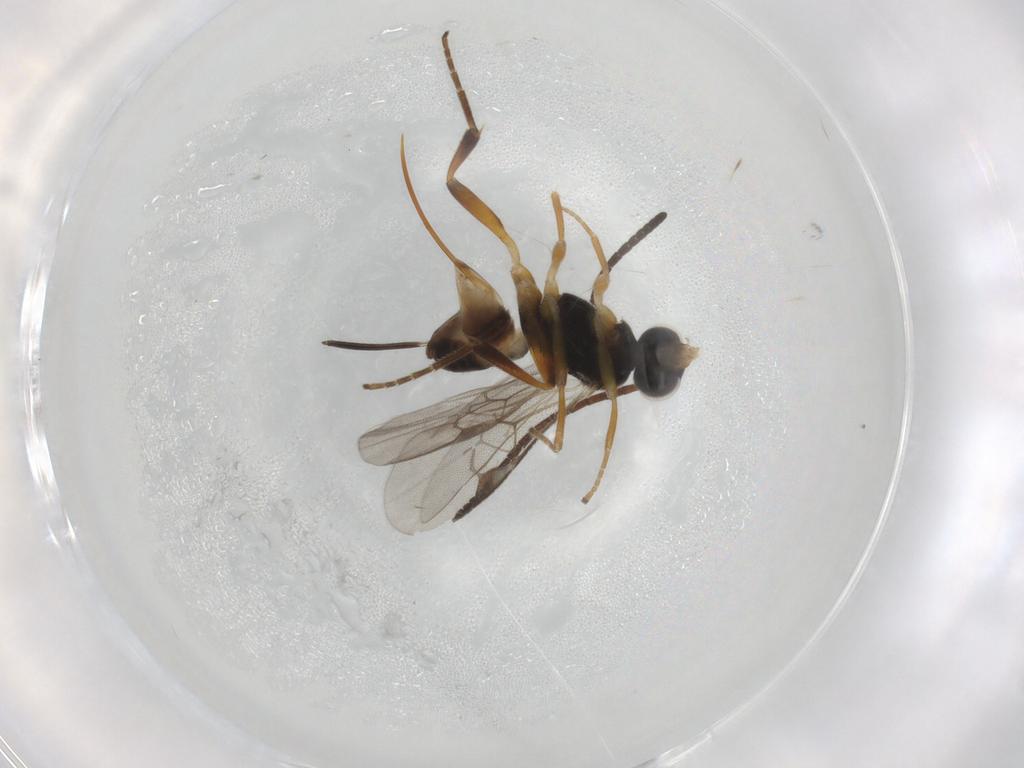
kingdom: Animalia
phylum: Arthropoda
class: Insecta
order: Hymenoptera
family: Braconidae
